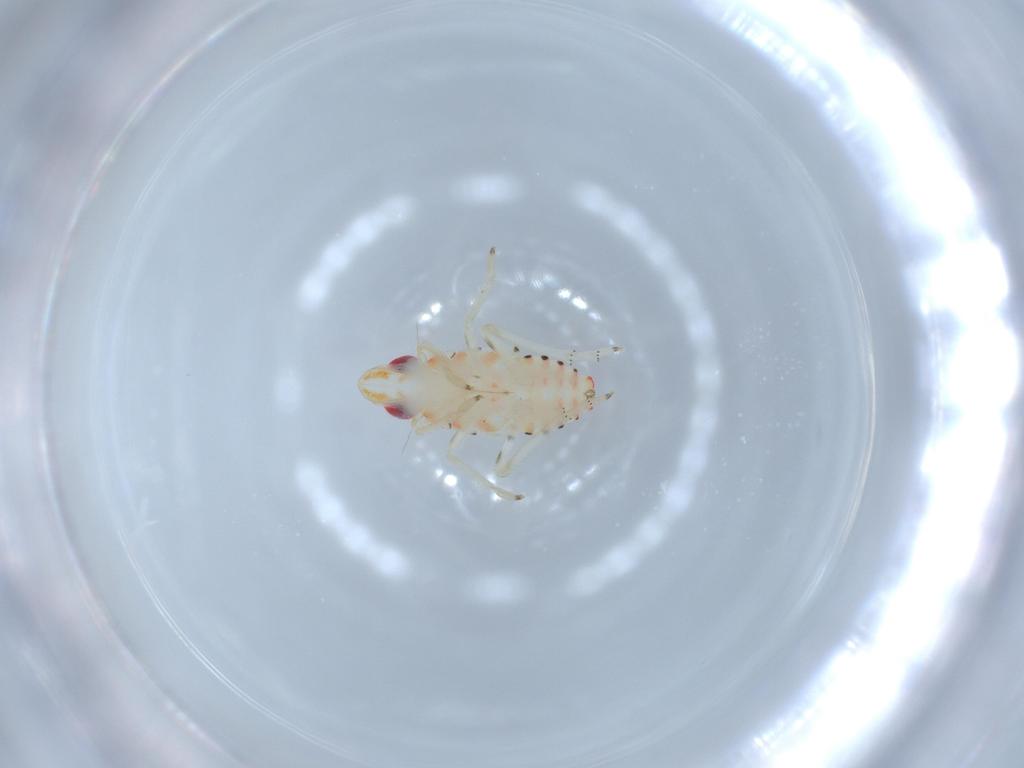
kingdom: Animalia
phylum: Arthropoda
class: Insecta
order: Hemiptera
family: Tropiduchidae
